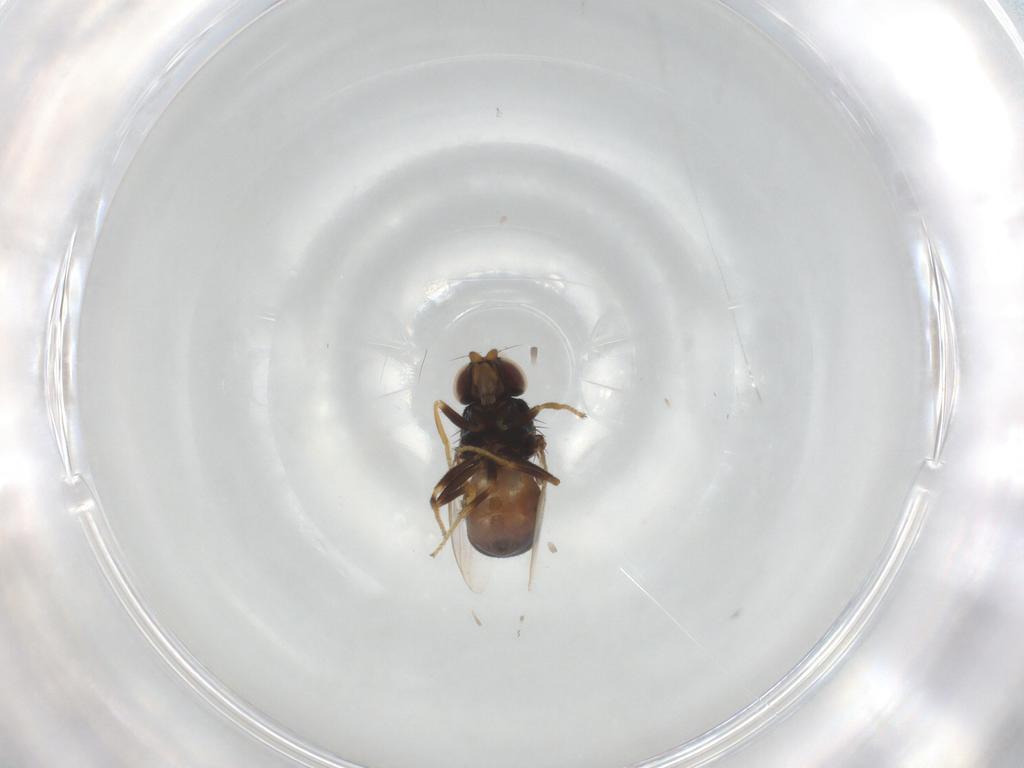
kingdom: Animalia
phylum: Arthropoda
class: Insecta
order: Diptera
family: Chloropidae
